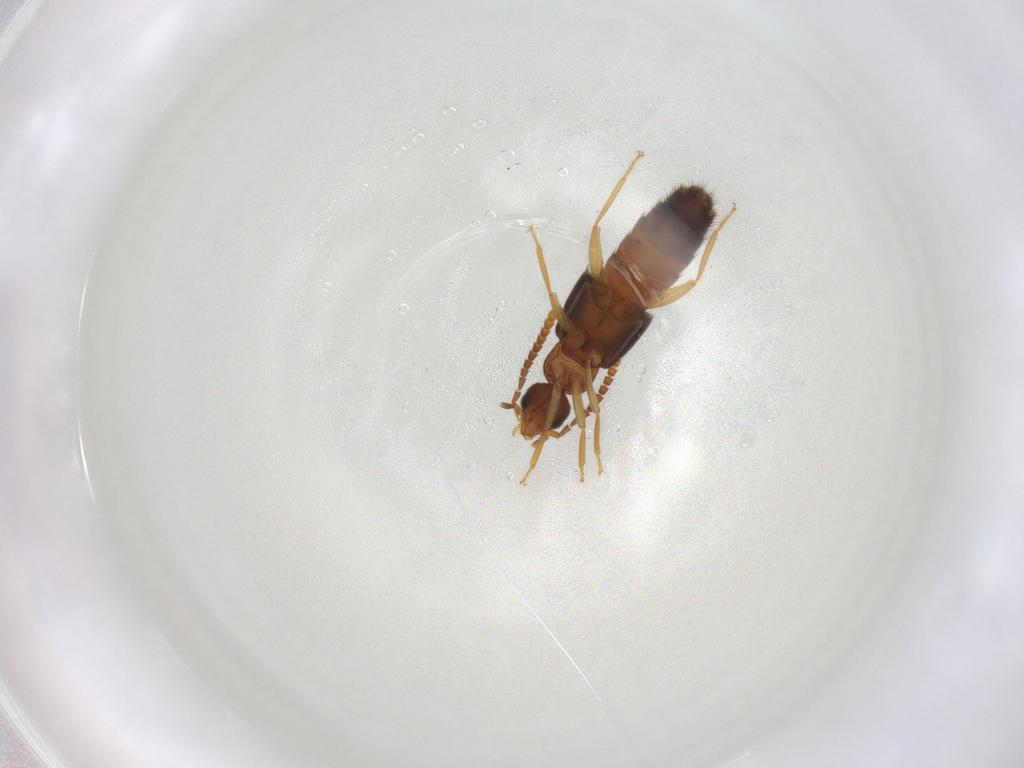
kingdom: Animalia
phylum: Arthropoda
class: Insecta
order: Coleoptera
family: Staphylinidae
